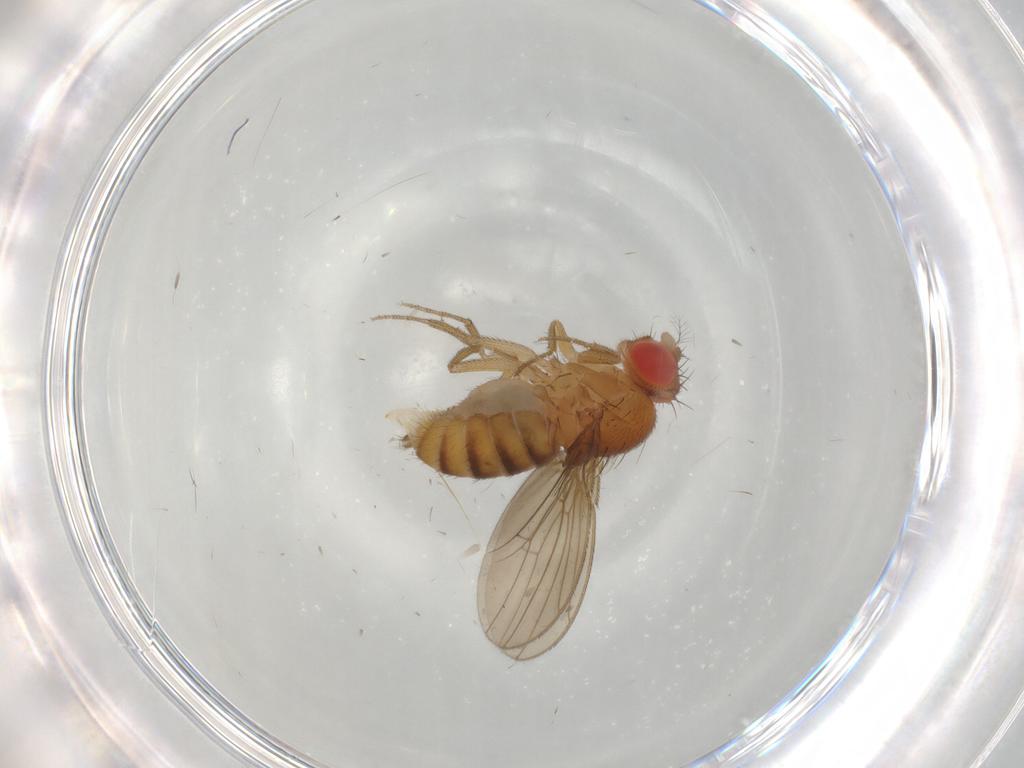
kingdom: Animalia
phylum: Arthropoda
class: Insecta
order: Diptera
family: Drosophilidae
